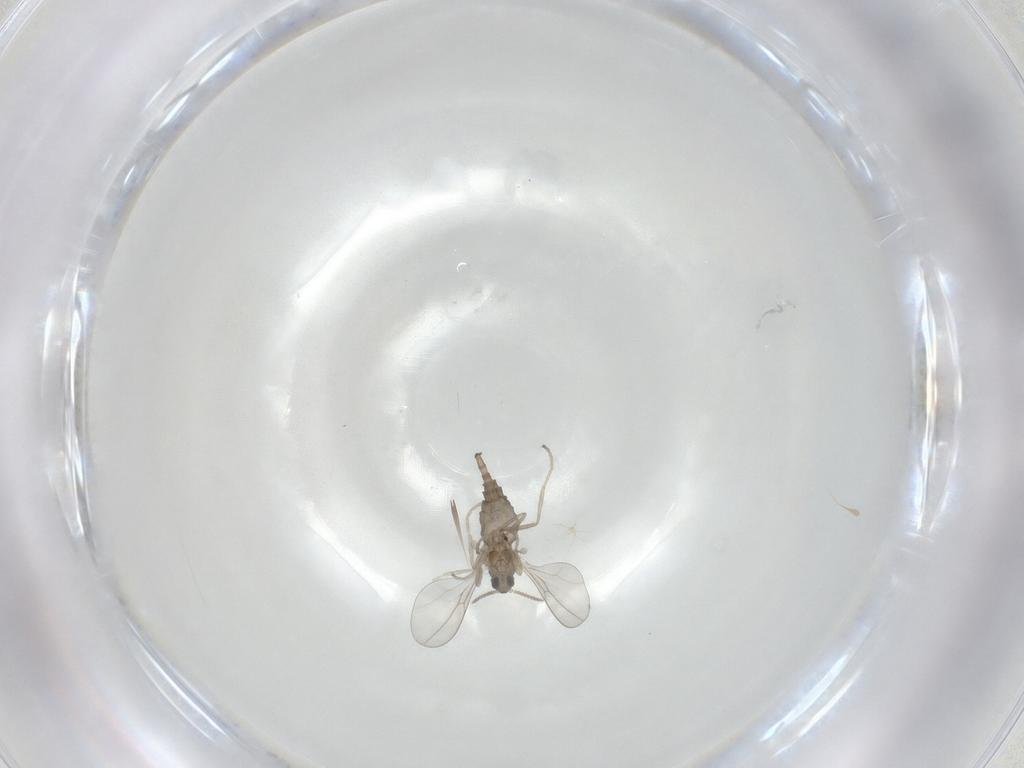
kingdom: Animalia
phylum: Arthropoda
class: Insecta
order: Diptera
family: Cecidomyiidae
